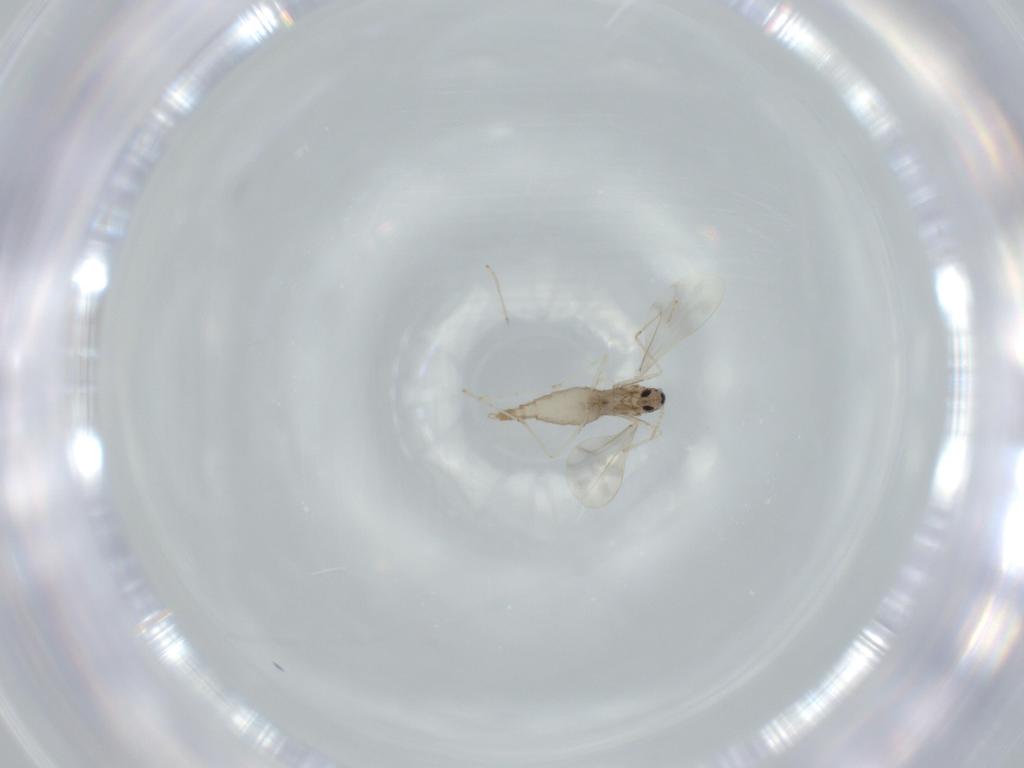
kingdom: Animalia
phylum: Arthropoda
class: Insecta
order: Diptera
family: Cecidomyiidae
